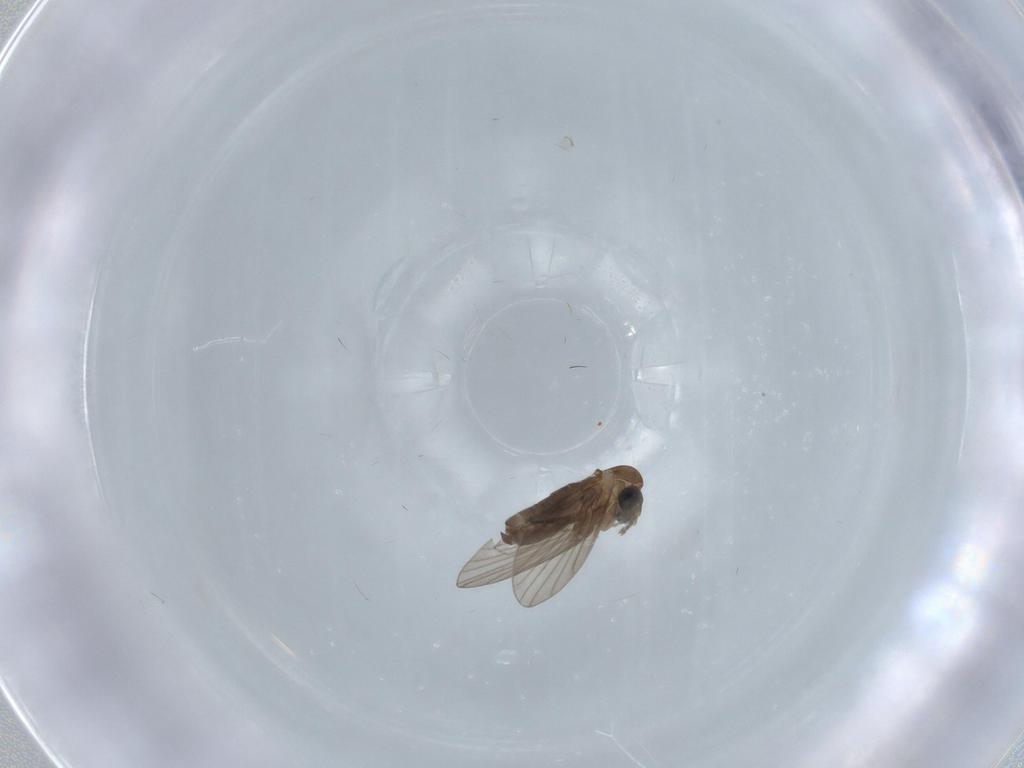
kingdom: Animalia
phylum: Arthropoda
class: Insecta
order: Diptera
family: Psychodidae
